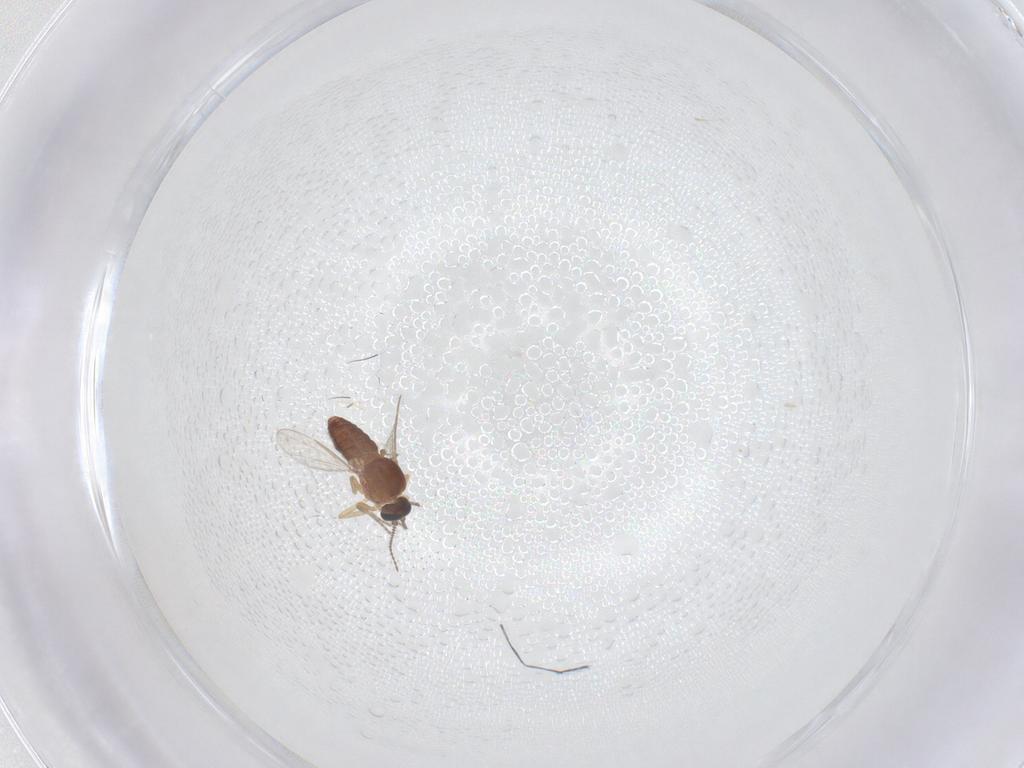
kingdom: Animalia
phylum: Arthropoda
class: Insecta
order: Diptera
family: Ceratopogonidae
